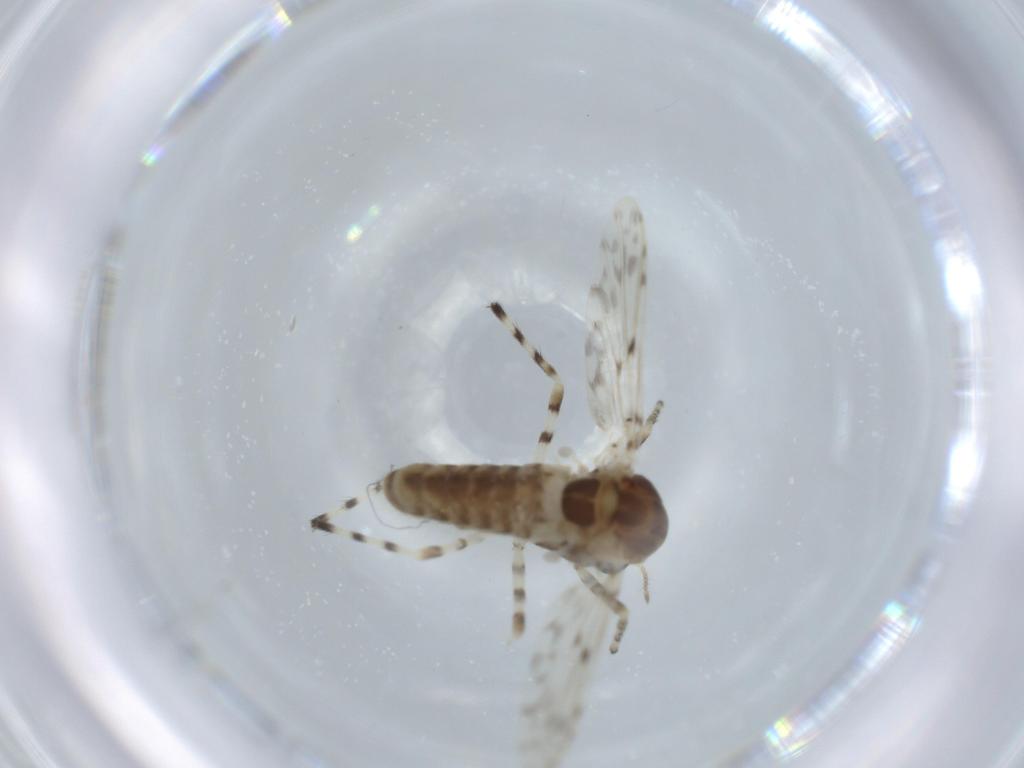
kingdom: Animalia
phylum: Arthropoda
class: Insecta
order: Diptera
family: Chironomidae
